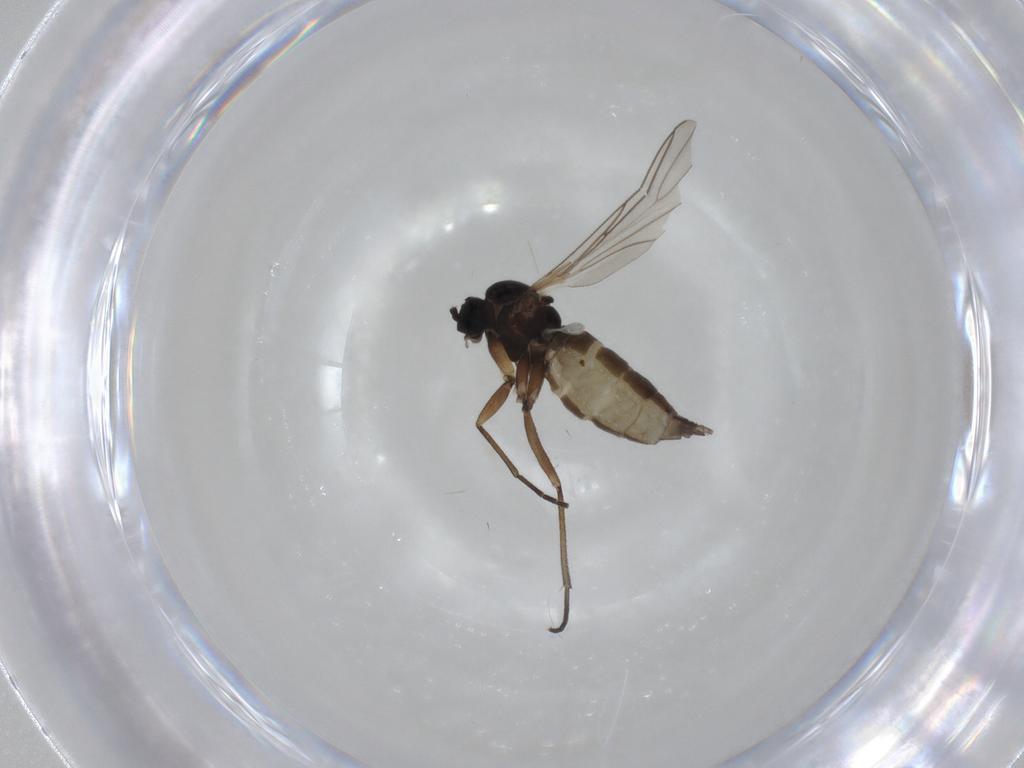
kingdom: Animalia
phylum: Arthropoda
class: Insecta
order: Diptera
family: Sciaridae
